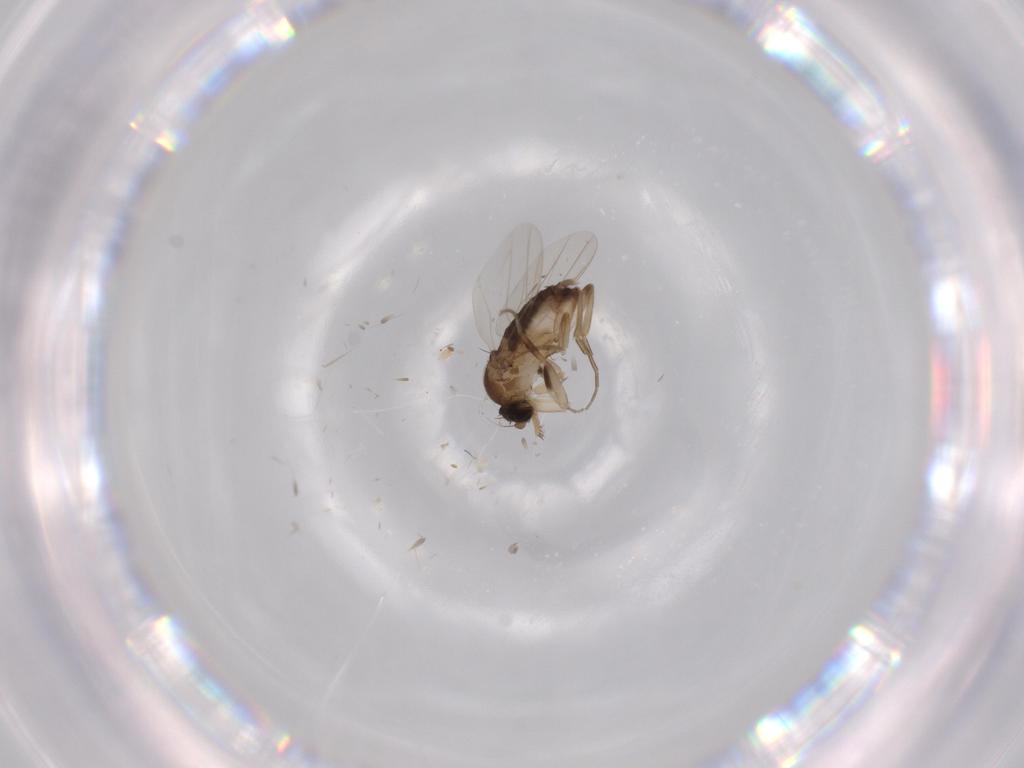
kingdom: Animalia
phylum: Arthropoda
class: Insecta
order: Diptera
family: Phoridae
